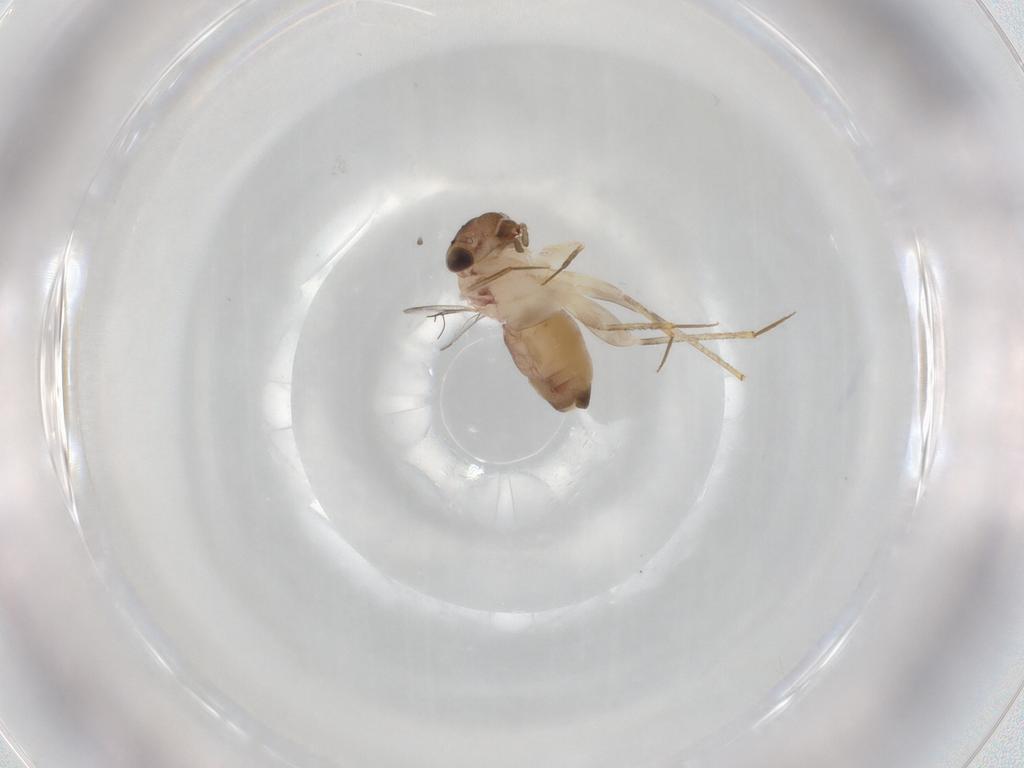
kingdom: Animalia
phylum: Arthropoda
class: Insecta
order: Psocodea
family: Lepidopsocidae
